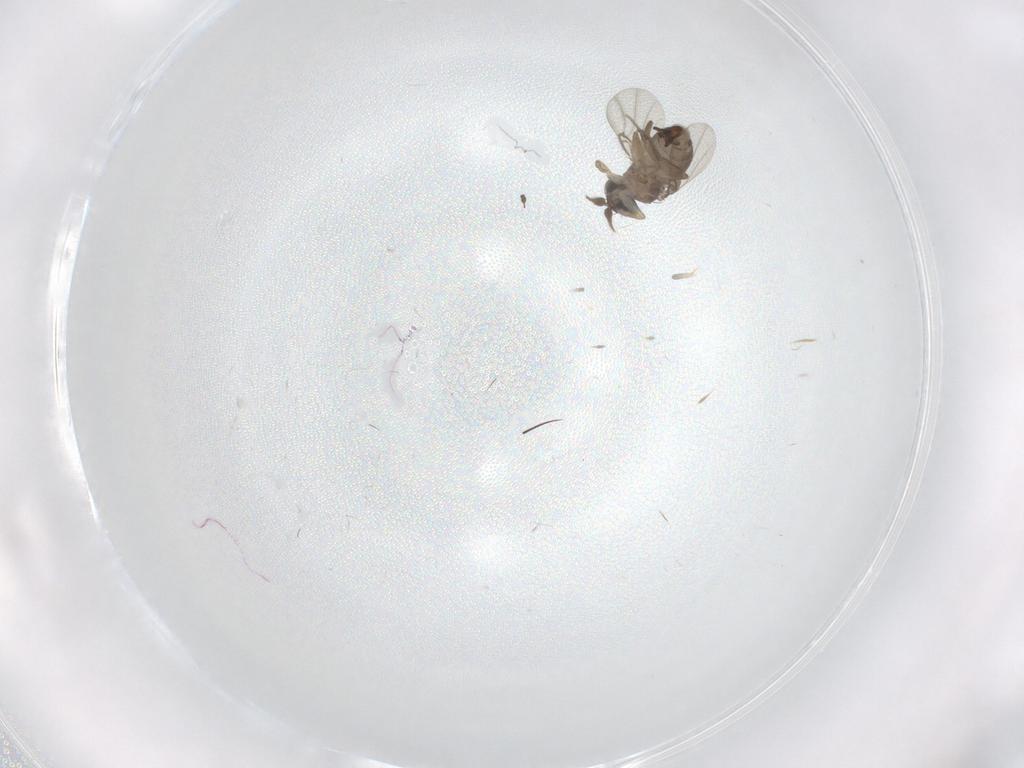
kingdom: Animalia
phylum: Arthropoda
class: Insecta
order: Diptera
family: Phoridae
